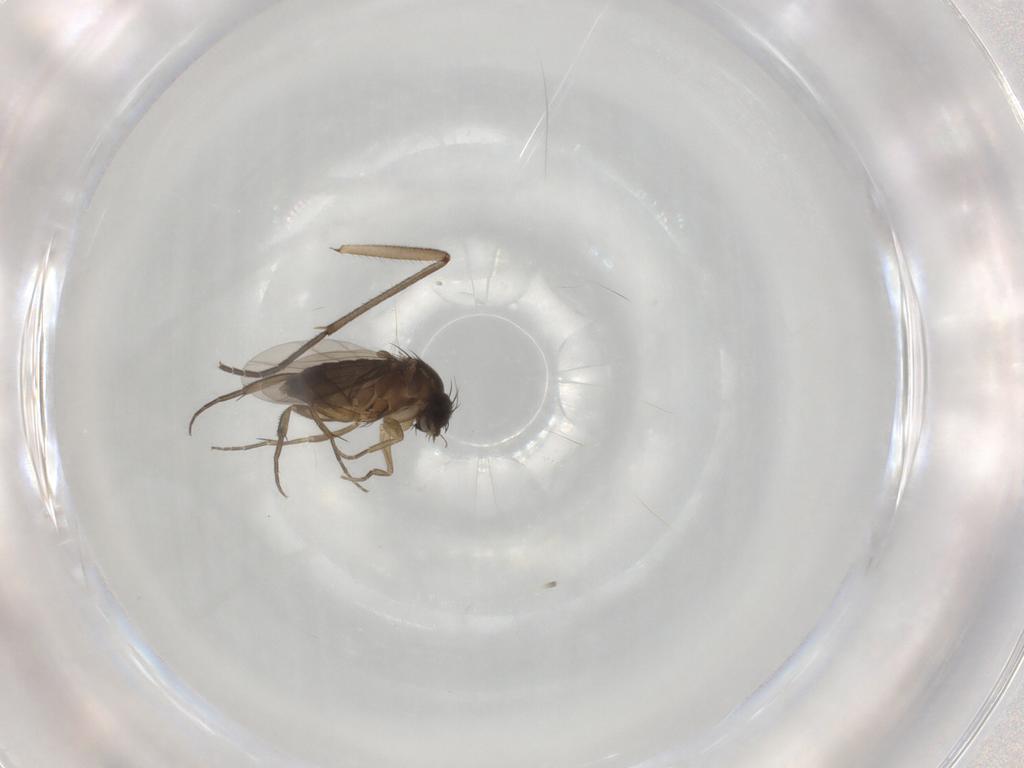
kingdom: Animalia
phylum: Arthropoda
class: Insecta
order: Diptera
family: Phoridae
